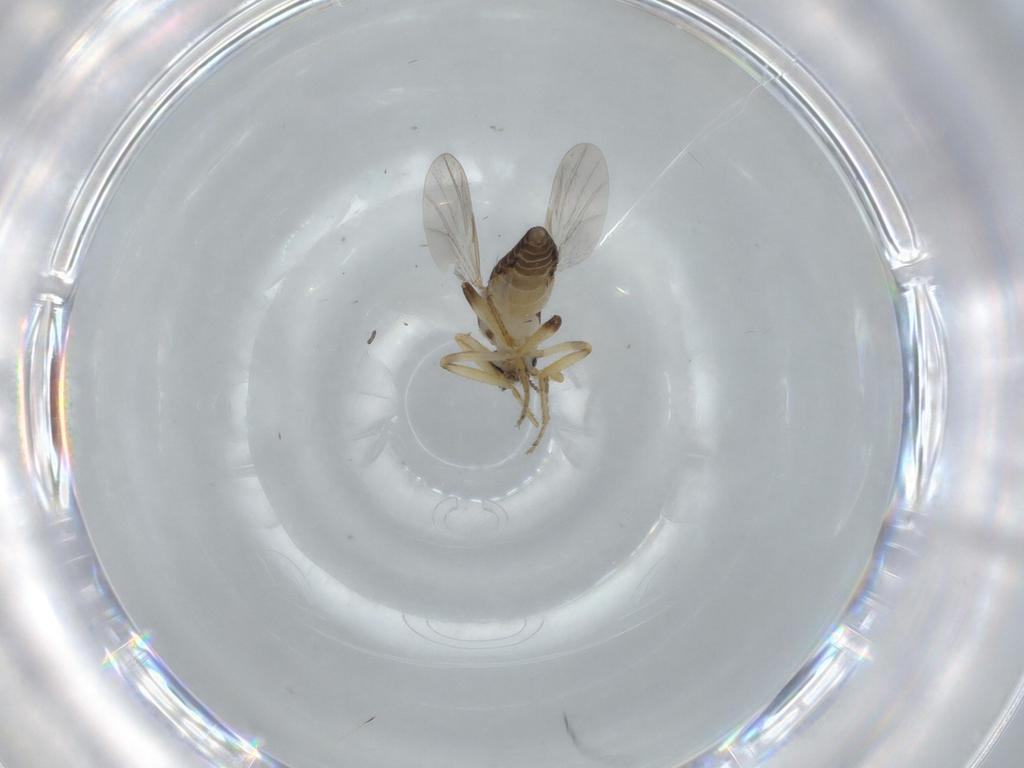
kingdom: Animalia
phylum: Arthropoda
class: Insecta
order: Diptera
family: Ceratopogonidae
